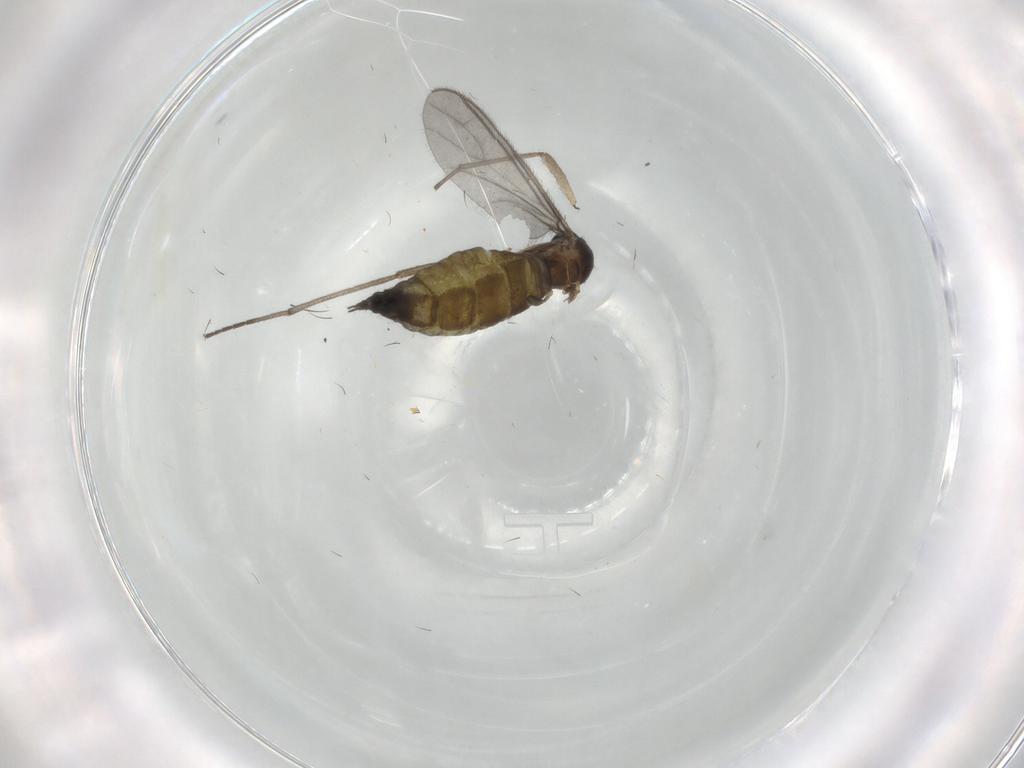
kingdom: Animalia
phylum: Arthropoda
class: Insecta
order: Diptera
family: Sciaridae
